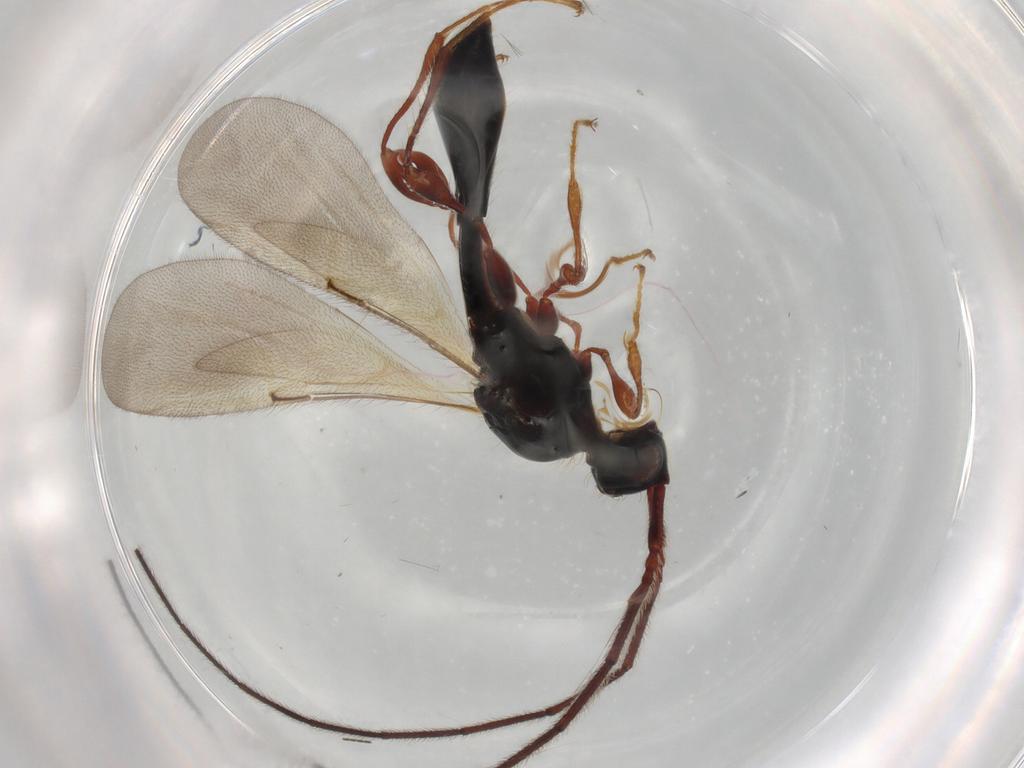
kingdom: Animalia
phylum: Arthropoda
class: Insecta
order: Hymenoptera
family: Diapriidae
